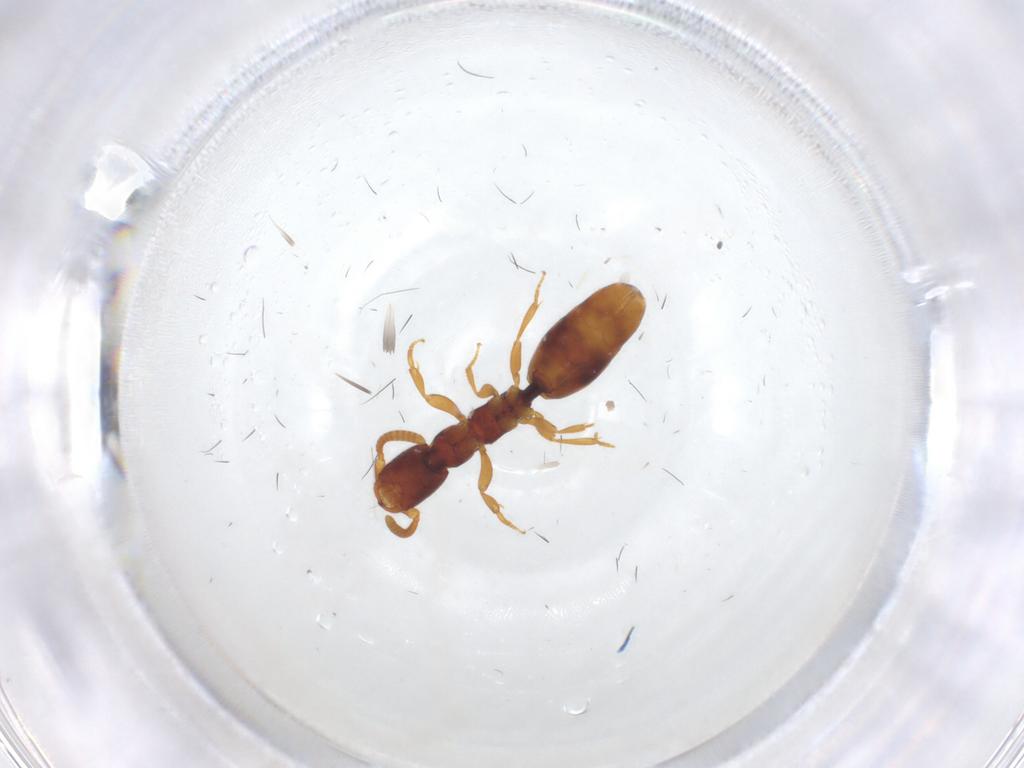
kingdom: Animalia
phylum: Arthropoda
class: Insecta
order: Hymenoptera
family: Bethylidae
